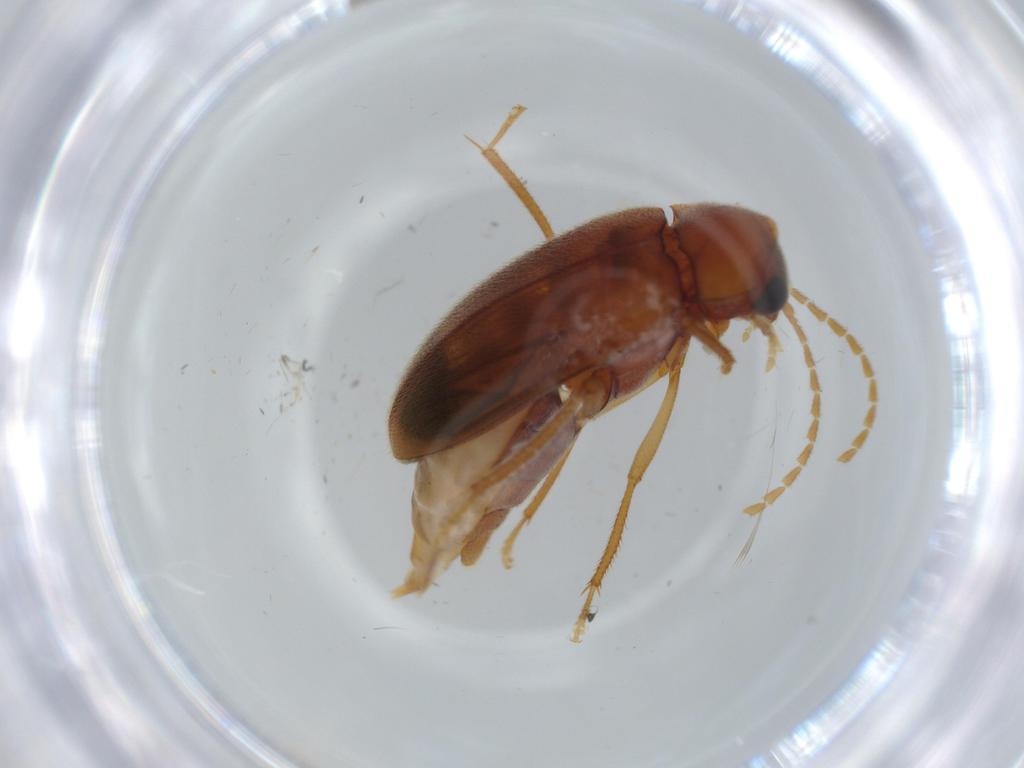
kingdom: Animalia
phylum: Arthropoda
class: Insecta
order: Coleoptera
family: Ptilodactylidae
